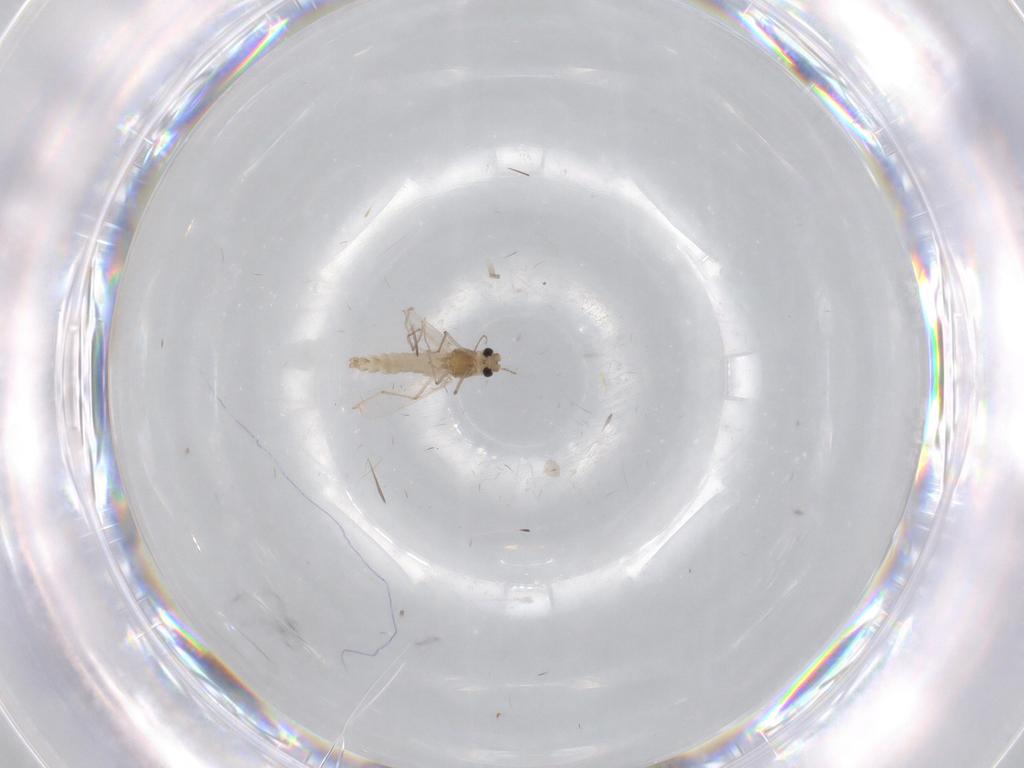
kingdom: Animalia
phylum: Arthropoda
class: Insecta
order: Diptera
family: Chironomidae
